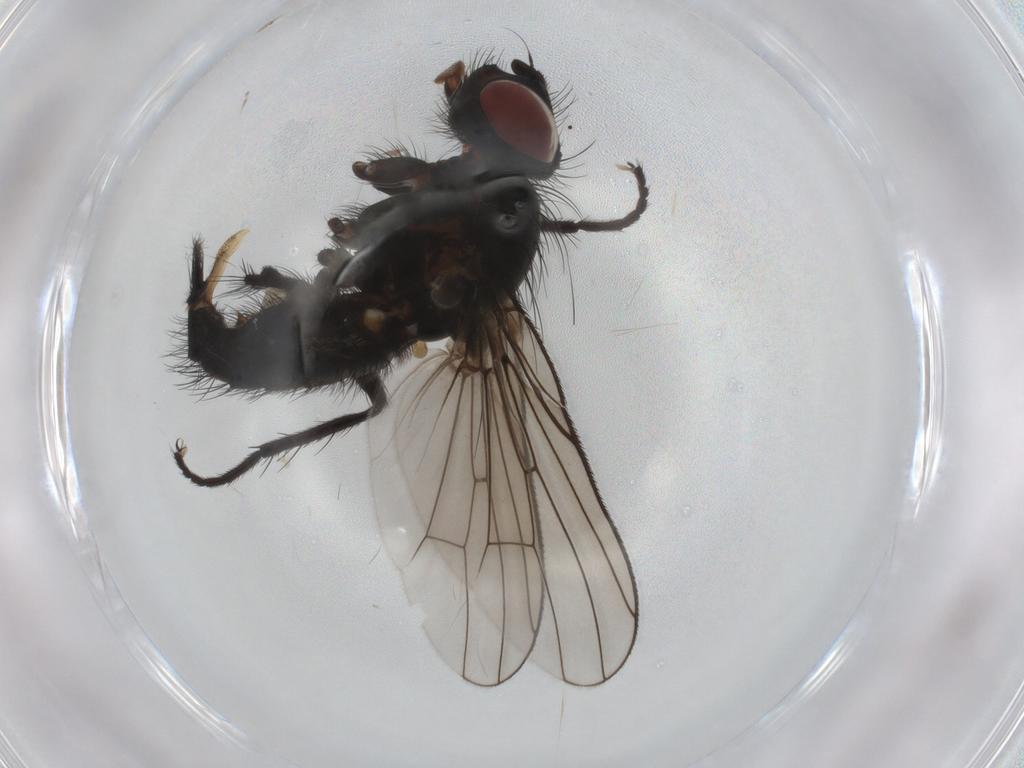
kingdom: Animalia
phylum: Arthropoda
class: Insecta
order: Diptera
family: Anthomyiidae
